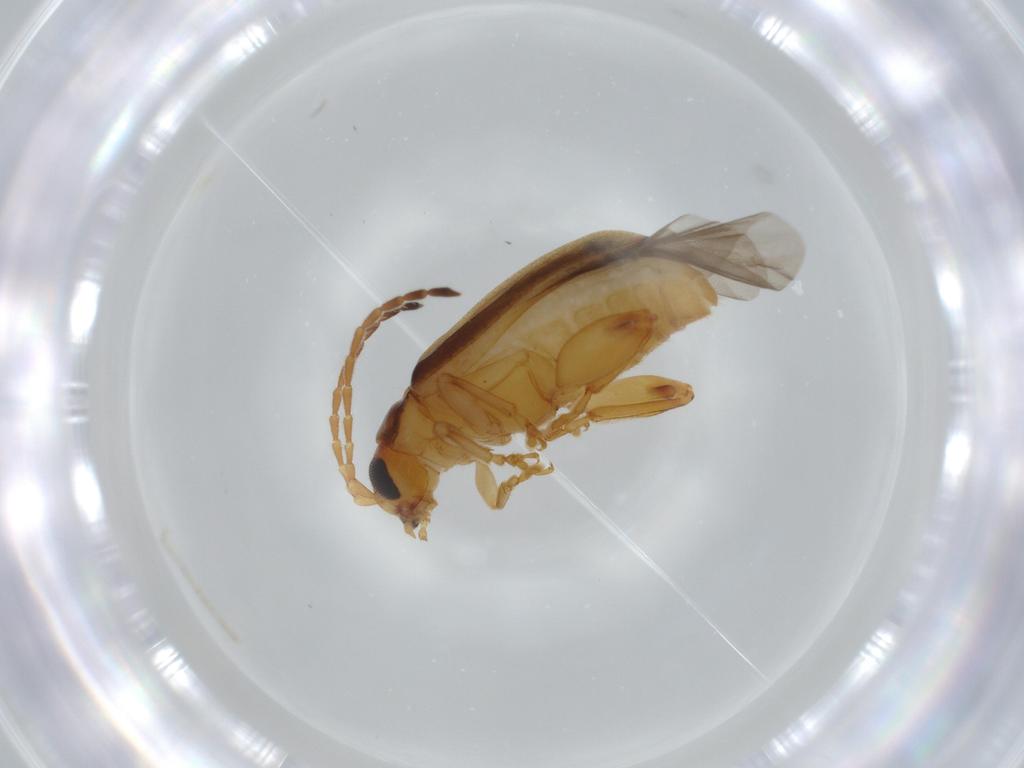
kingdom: Animalia
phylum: Arthropoda
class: Insecta
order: Coleoptera
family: Chrysomelidae
